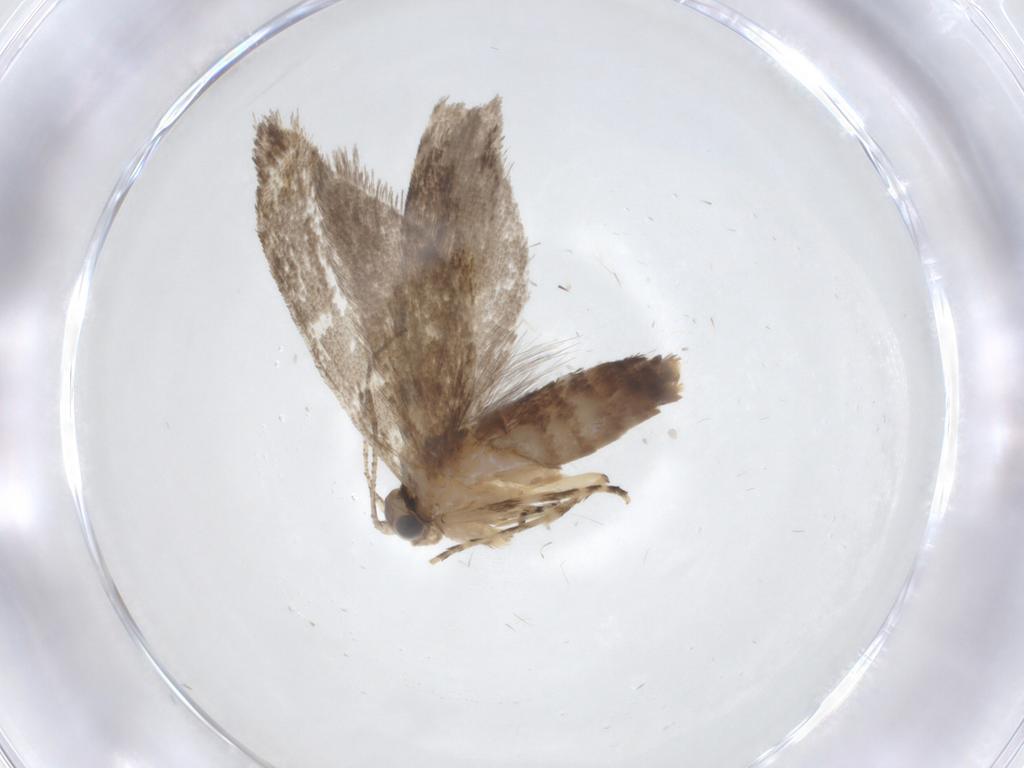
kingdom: Animalia
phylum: Arthropoda
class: Insecta
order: Lepidoptera
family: Tineidae
